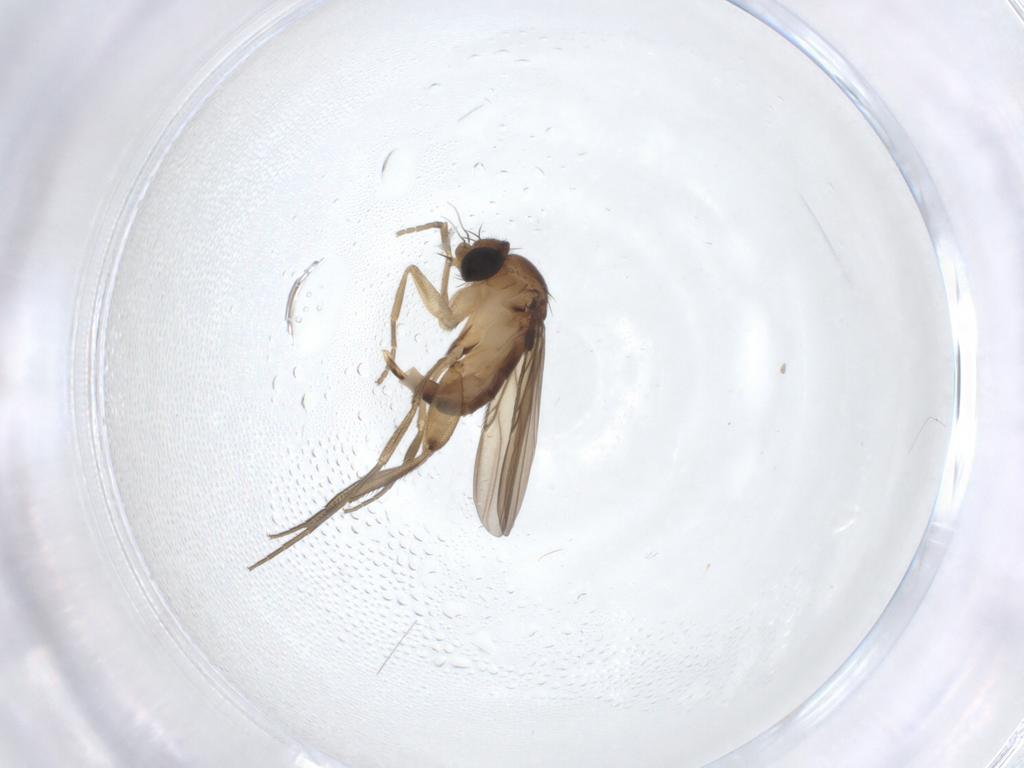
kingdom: Animalia
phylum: Arthropoda
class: Insecta
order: Diptera
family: Phoridae
